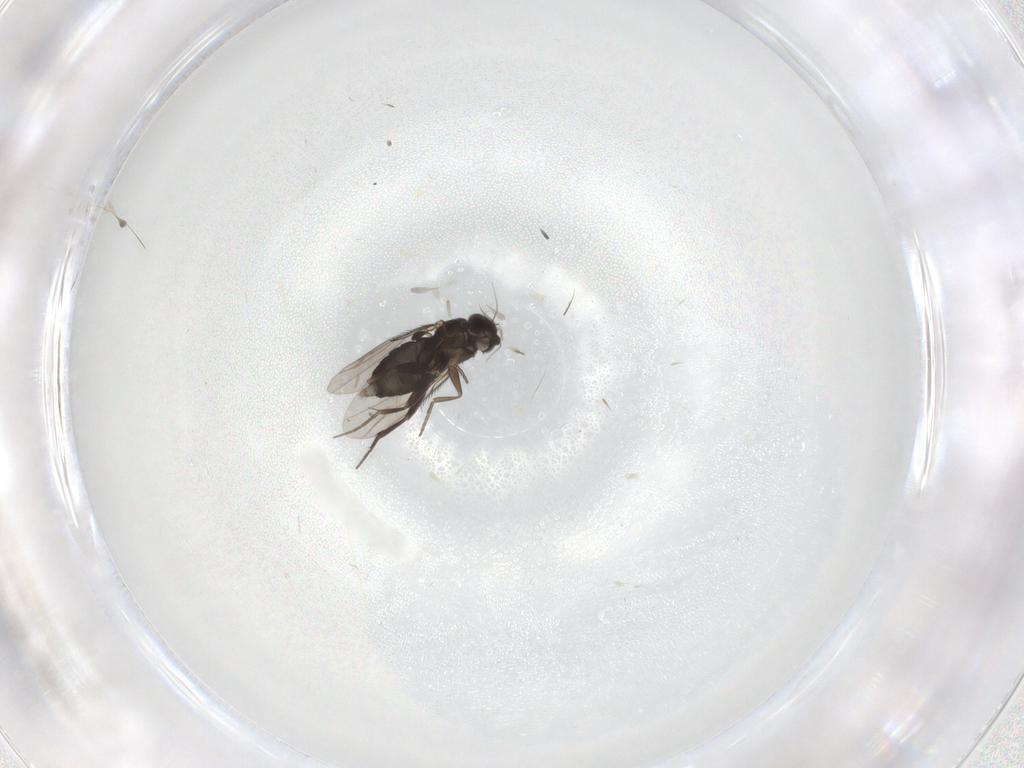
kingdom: Animalia
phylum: Arthropoda
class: Insecta
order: Diptera
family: Phoridae
